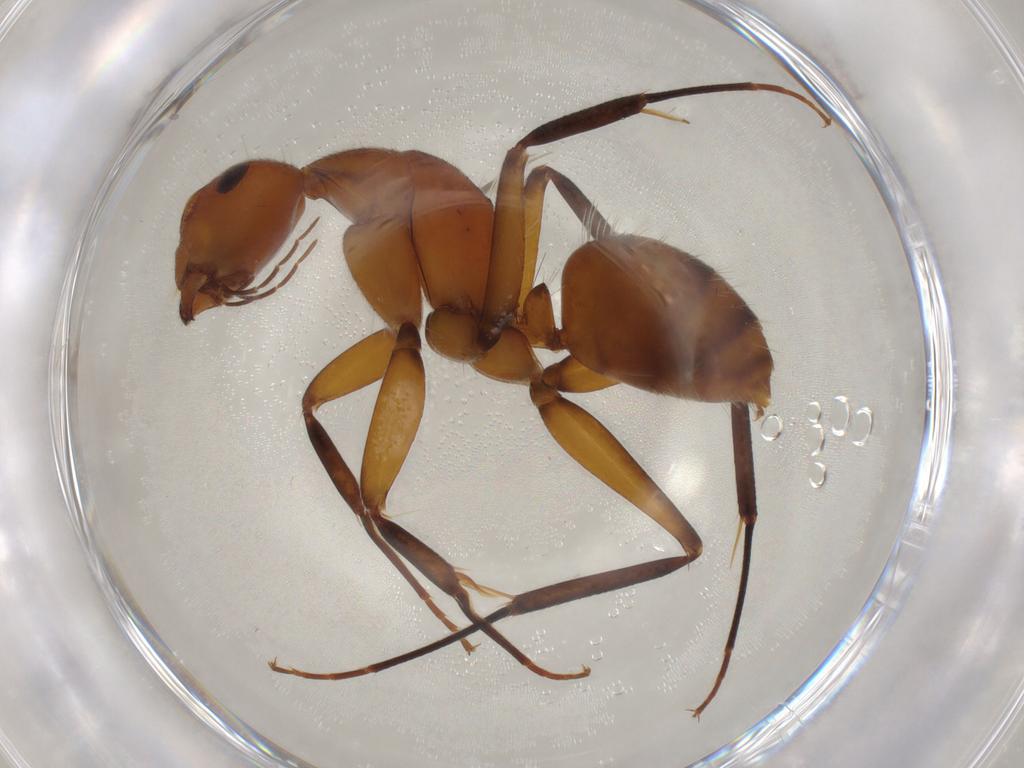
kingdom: Animalia
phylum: Arthropoda
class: Insecta
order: Hymenoptera
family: Formicidae
